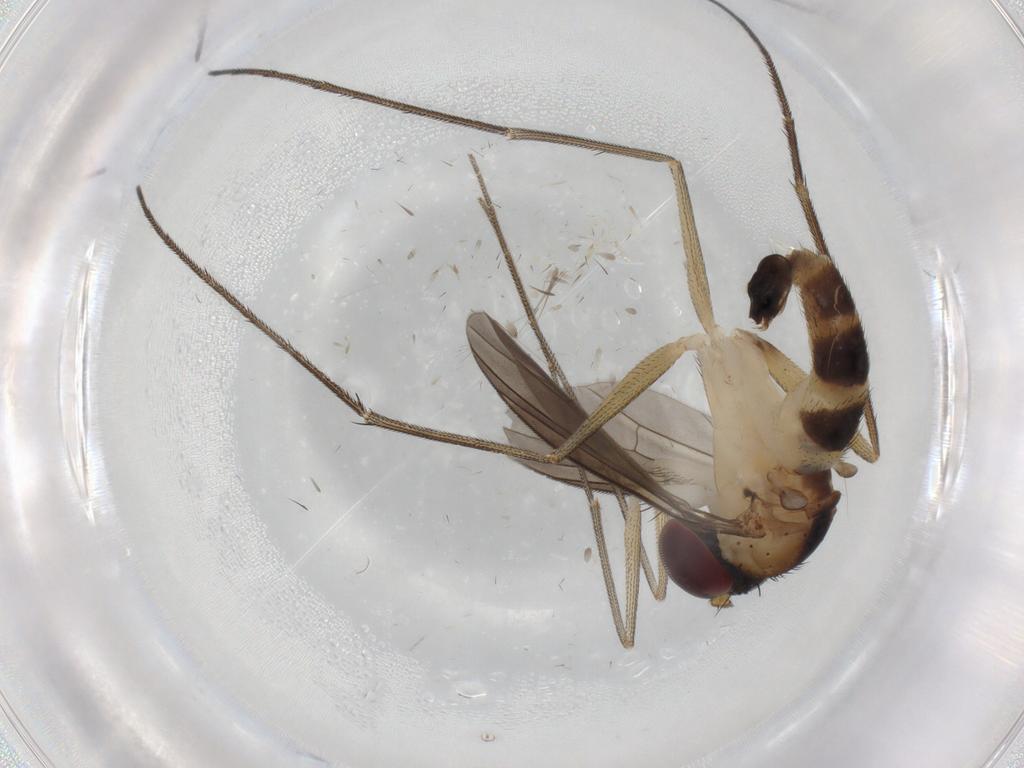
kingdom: Animalia
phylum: Arthropoda
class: Insecta
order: Diptera
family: Dolichopodidae
